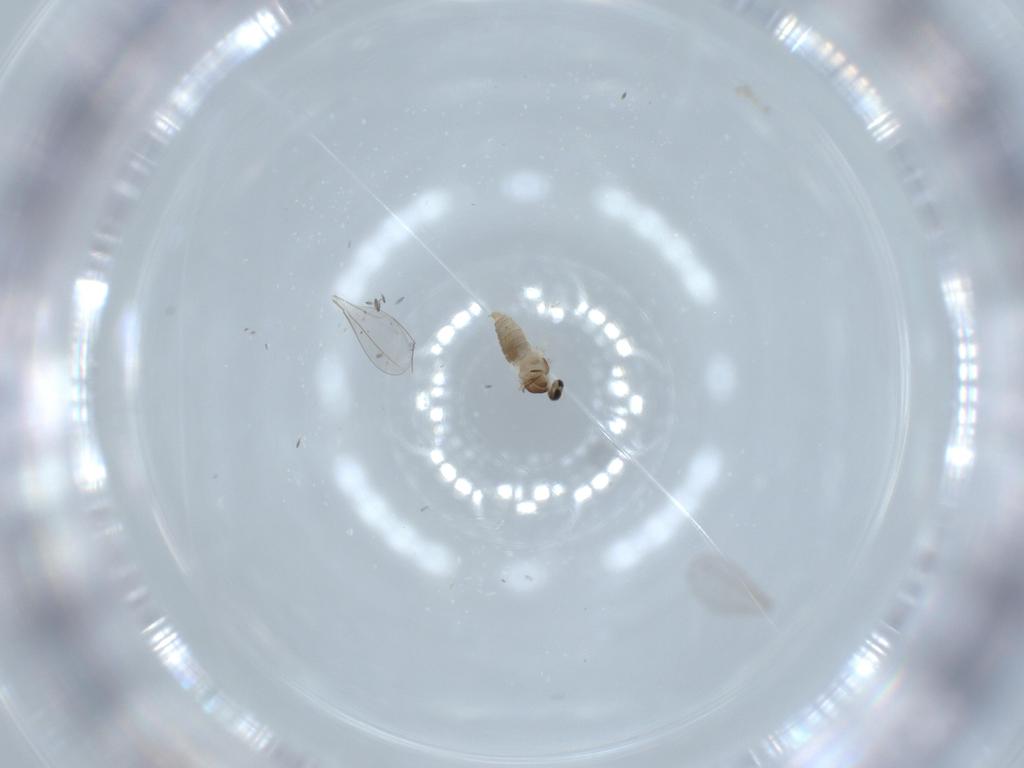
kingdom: Animalia
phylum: Arthropoda
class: Insecta
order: Diptera
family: Cecidomyiidae
